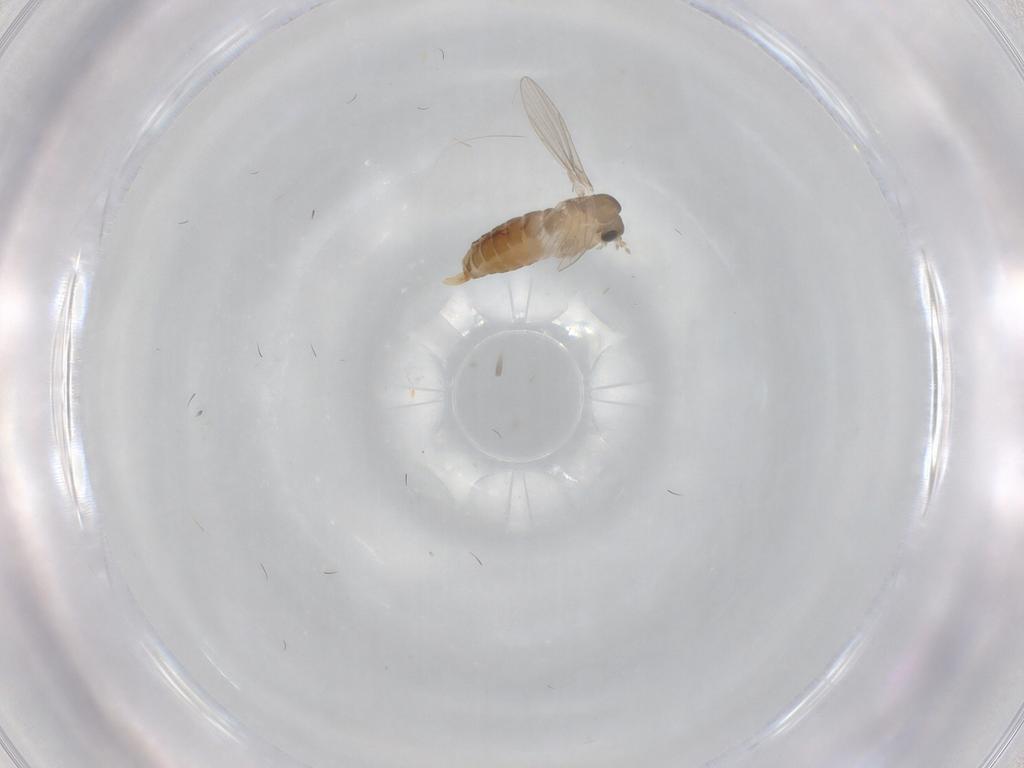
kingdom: Animalia
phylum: Arthropoda
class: Insecta
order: Diptera
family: Psychodidae
